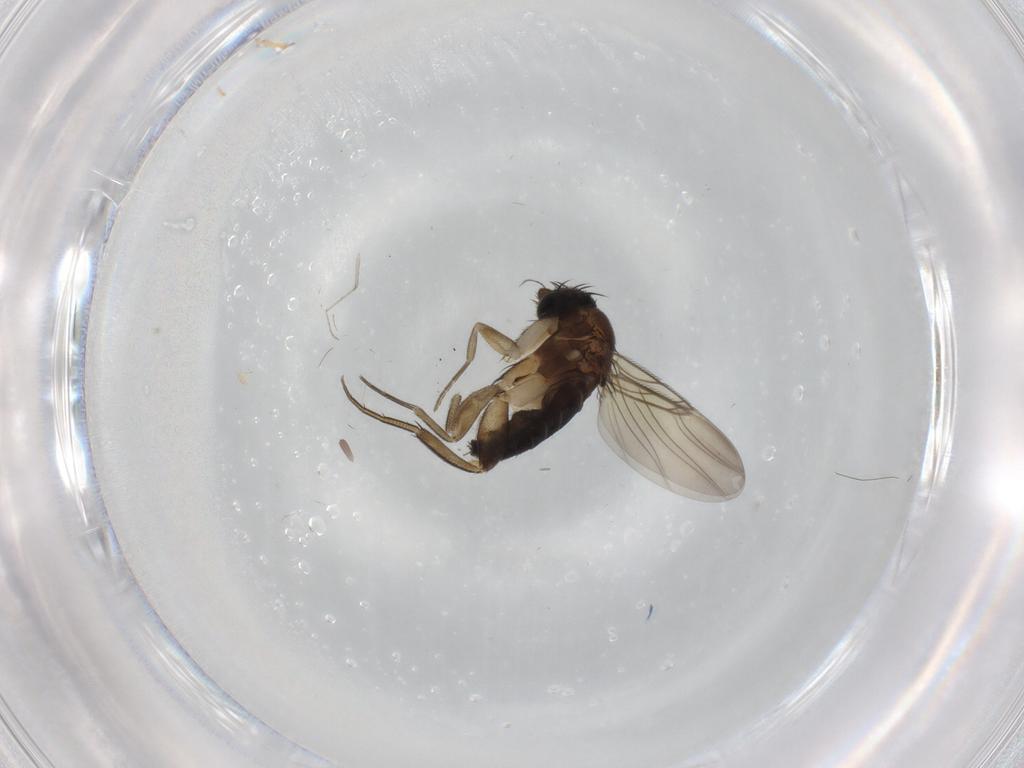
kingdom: Animalia
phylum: Arthropoda
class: Insecta
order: Diptera
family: Phoridae
